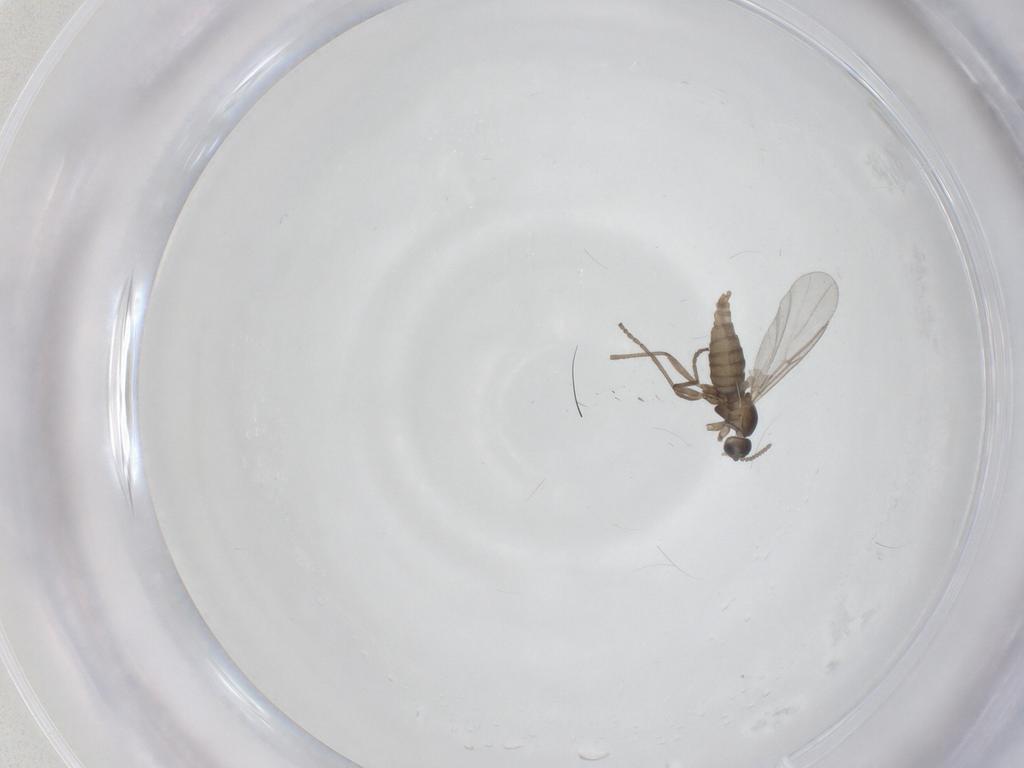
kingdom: Animalia
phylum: Arthropoda
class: Insecta
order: Diptera
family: Cecidomyiidae
